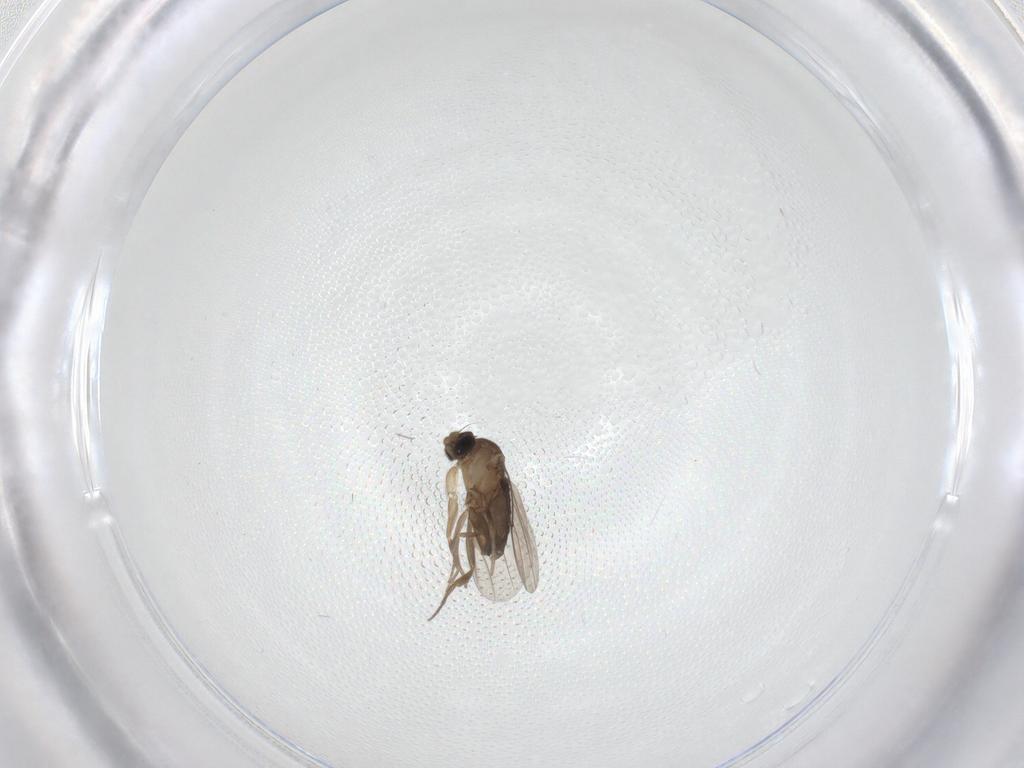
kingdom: Animalia
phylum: Arthropoda
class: Insecta
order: Diptera
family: Phoridae
